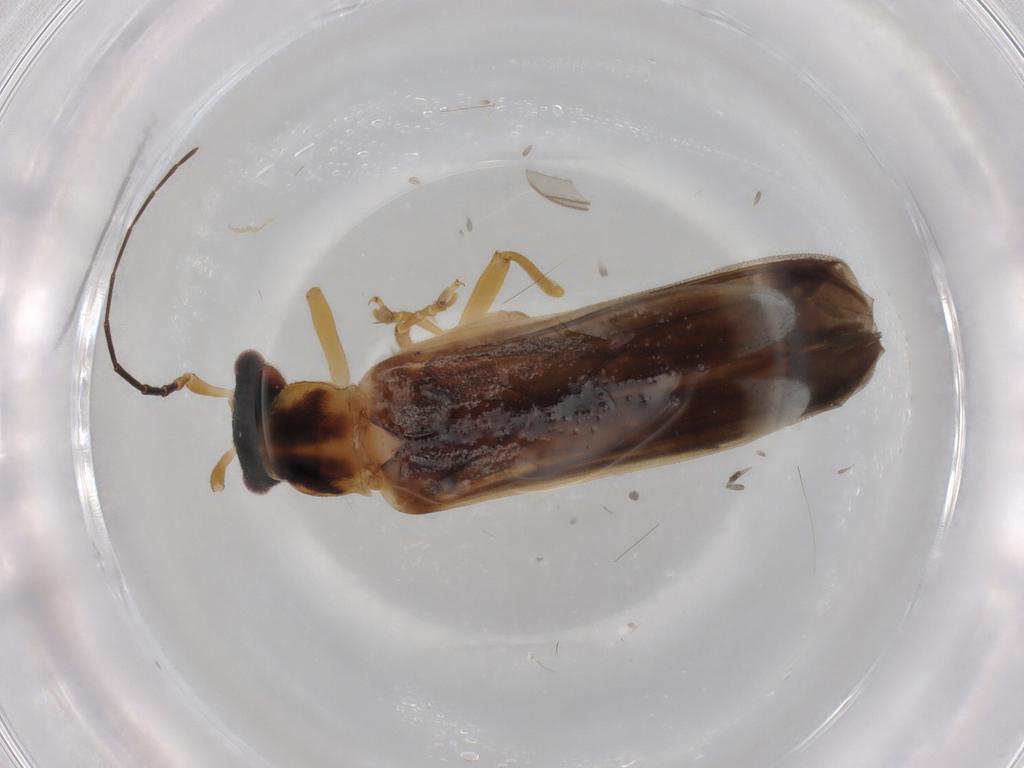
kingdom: Animalia
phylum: Arthropoda
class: Insecta
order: Coleoptera
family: Cantharidae
